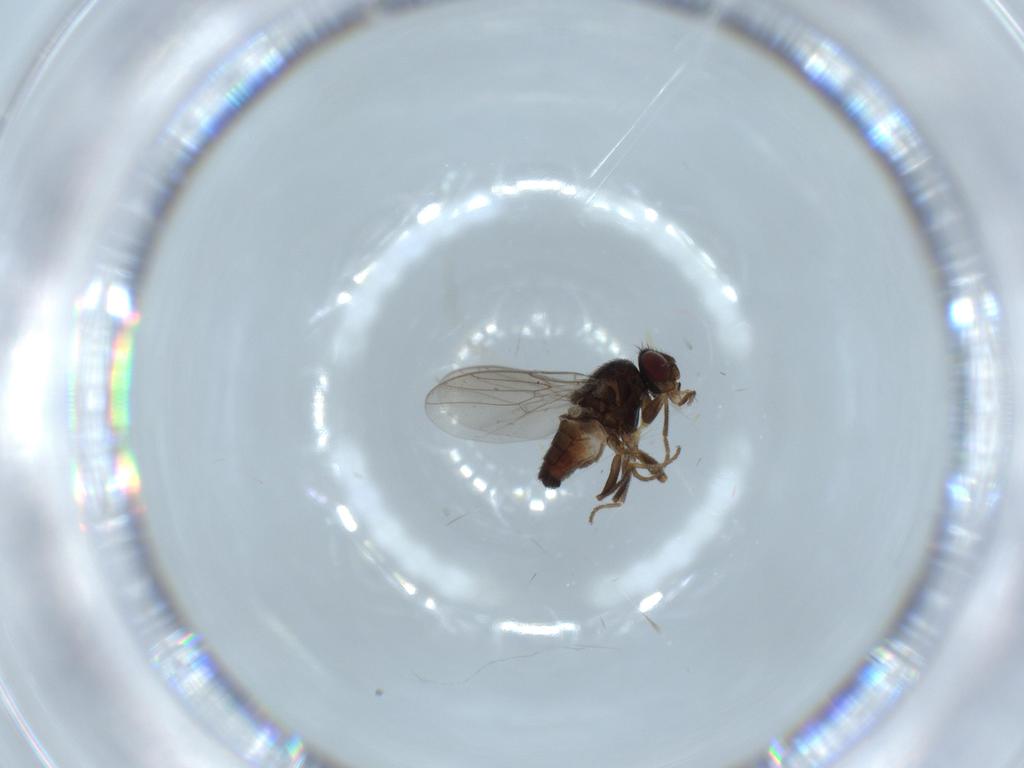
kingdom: Animalia
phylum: Arthropoda
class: Insecta
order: Diptera
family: Chloropidae
